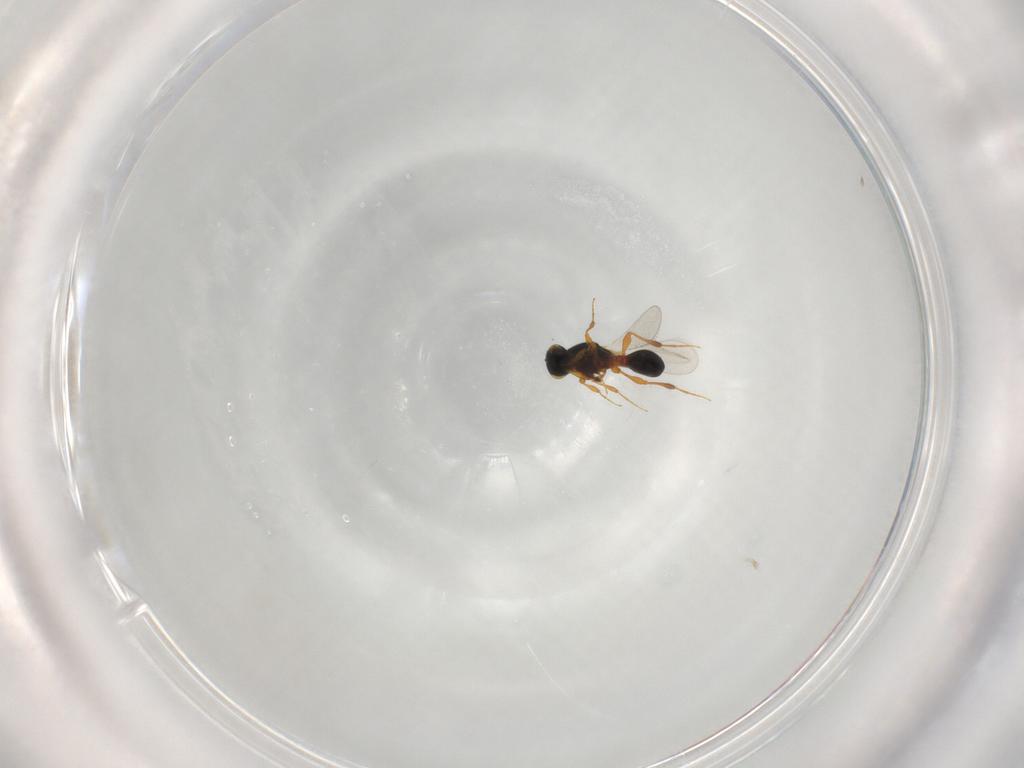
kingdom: Animalia
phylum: Arthropoda
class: Insecta
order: Hymenoptera
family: Platygastridae
